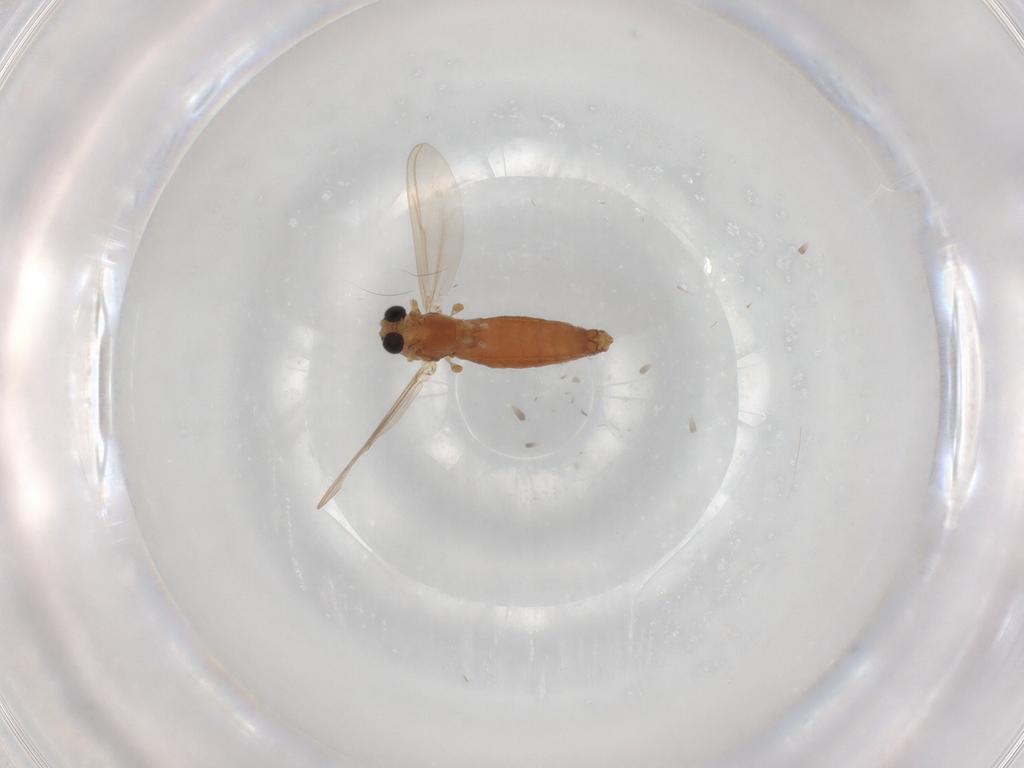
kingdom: Animalia
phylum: Arthropoda
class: Insecta
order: Diptera
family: Chironomidae
